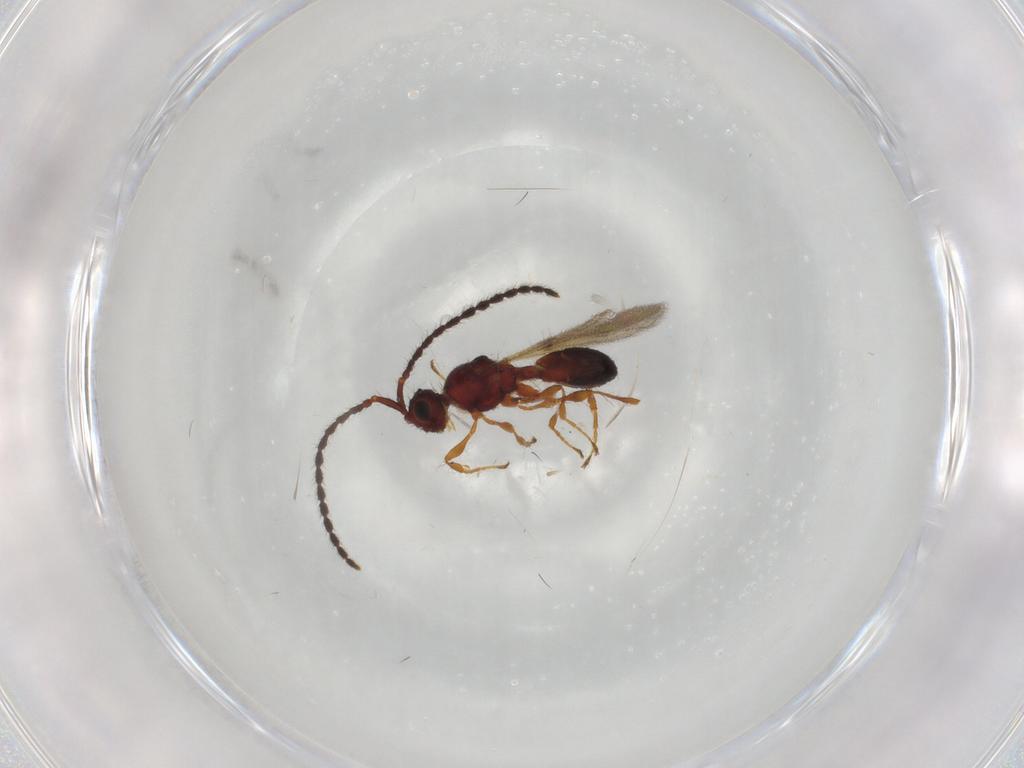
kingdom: Animalia
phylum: Arthropoda
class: Insecta
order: Hymenoptera
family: Diapriidae
